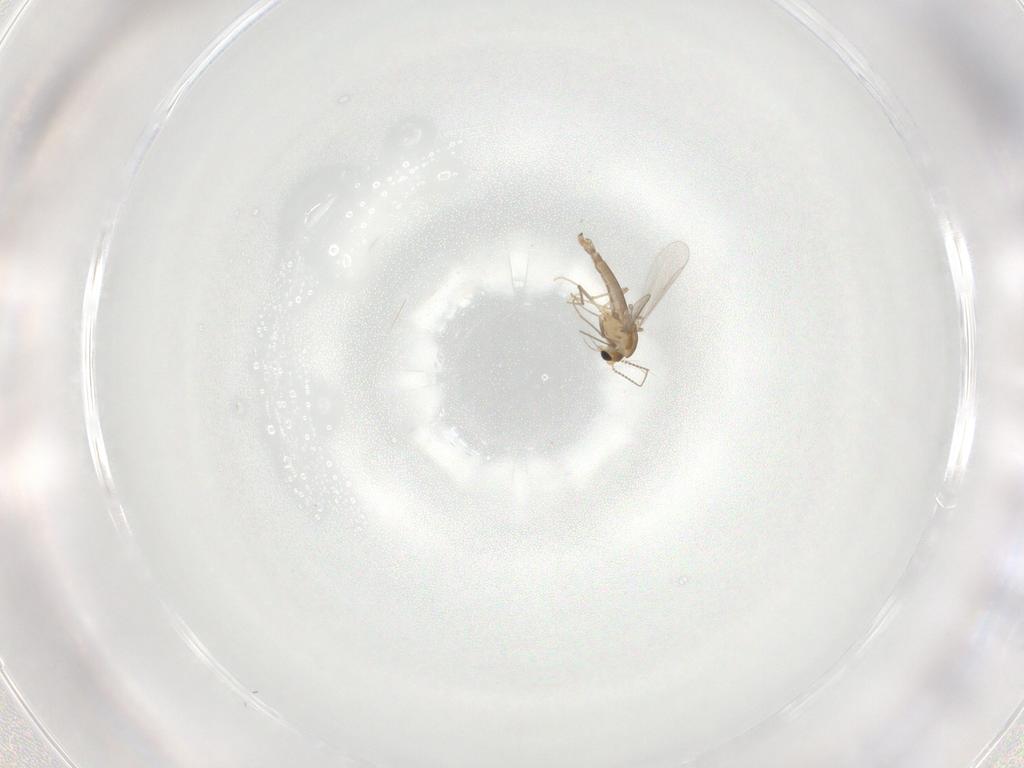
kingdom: Animalia
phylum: Arthropoda
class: Insecta
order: Diptera
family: Chironomidae
